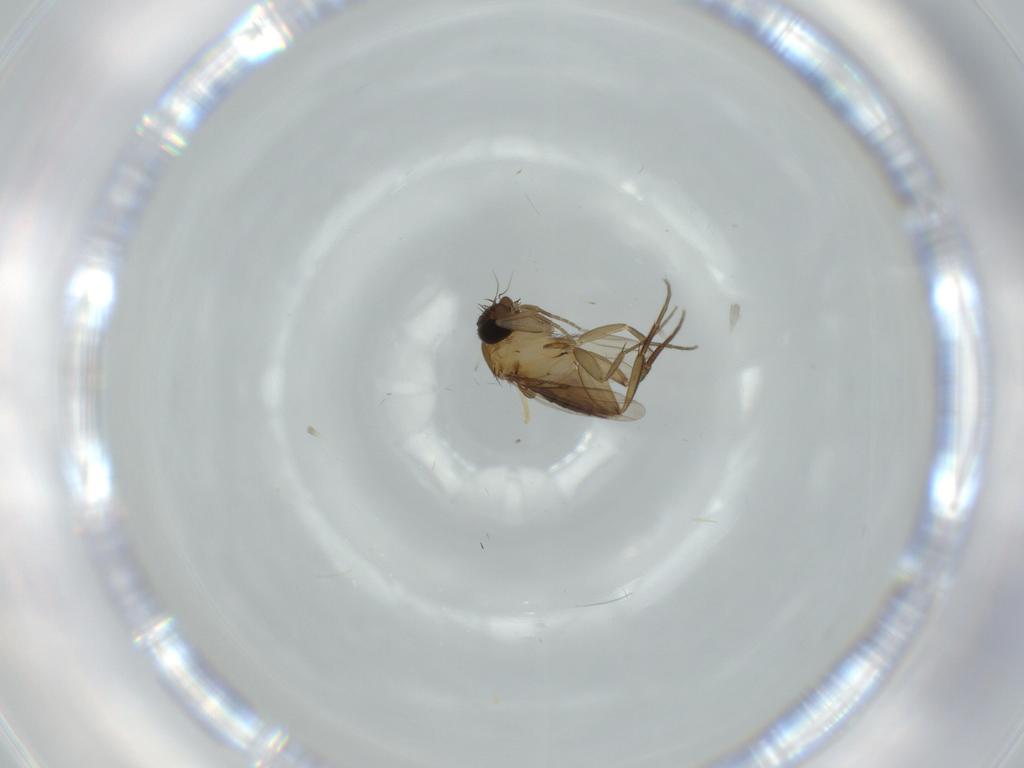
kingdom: Animalia
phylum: Arthropoda
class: Insecta
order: Diptera
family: Phoridae
